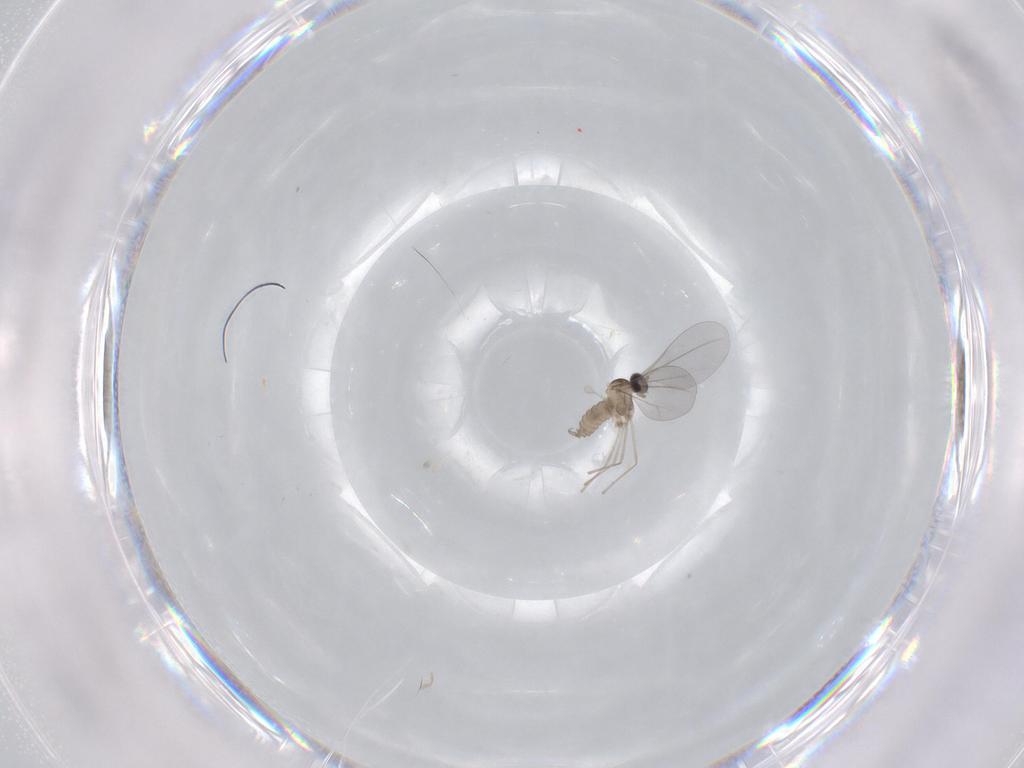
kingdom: Animalia
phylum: Arthropoda
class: Insecta
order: Diptera
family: Cecidomyiidae
